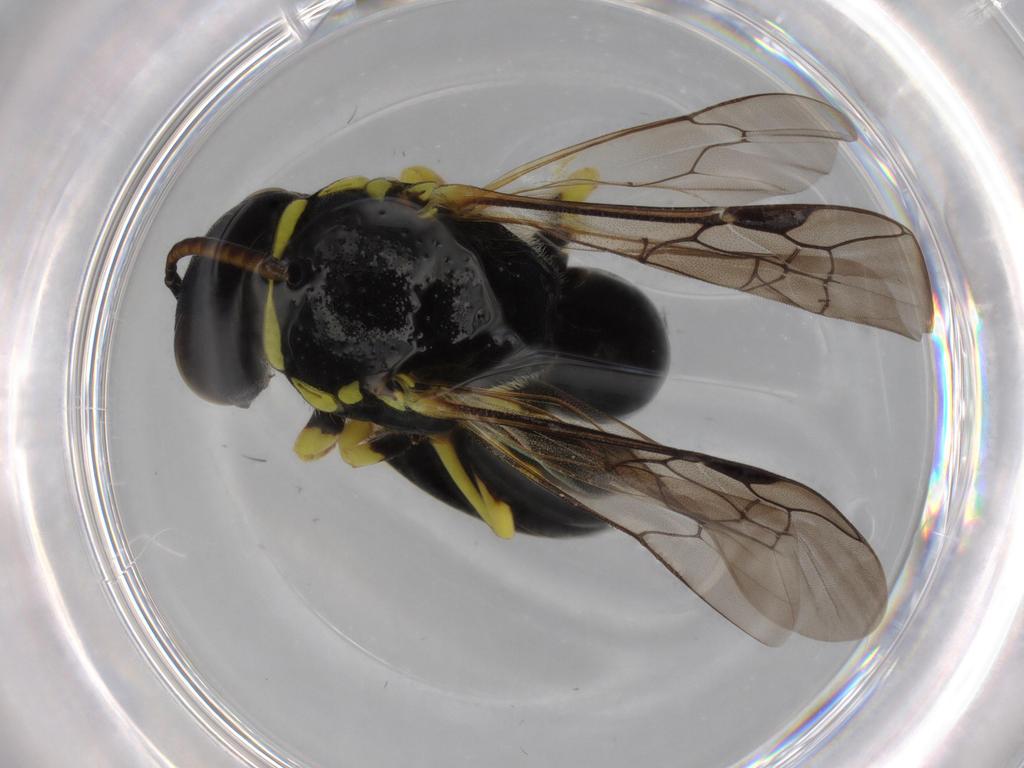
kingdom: Animalia
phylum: Arthropoda
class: Insecta
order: Hymenoptera
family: Colletidae
